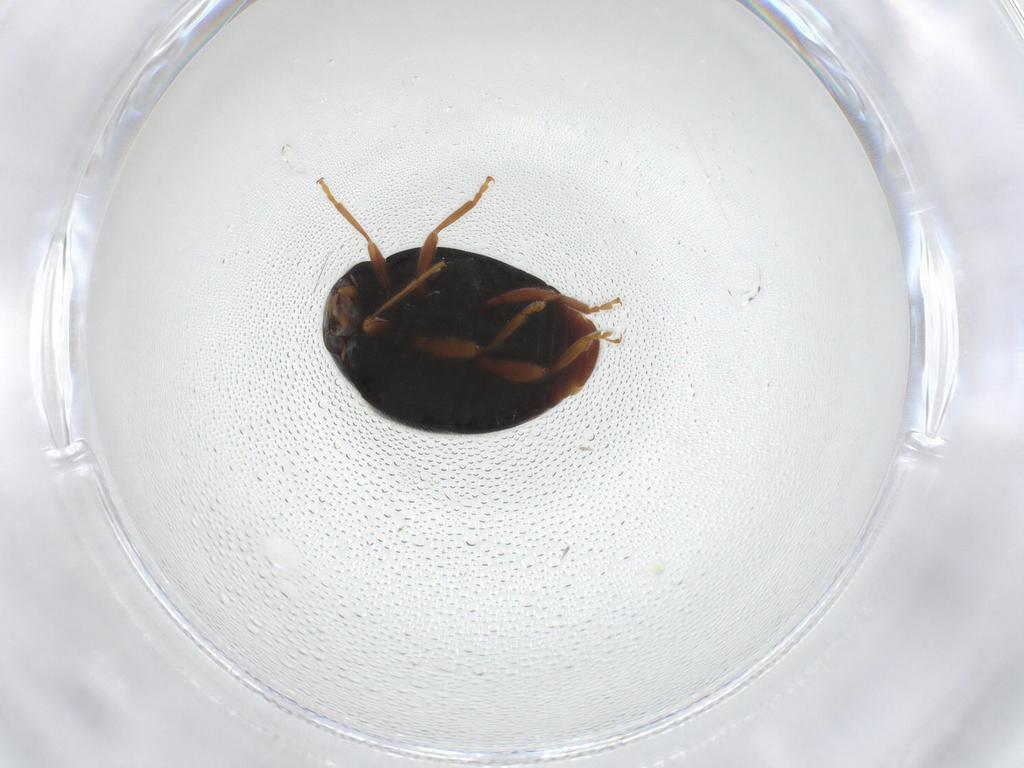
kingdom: Animalia
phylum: Arthropoda
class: Insecta
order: Coleoptera
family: Coccinellidae
